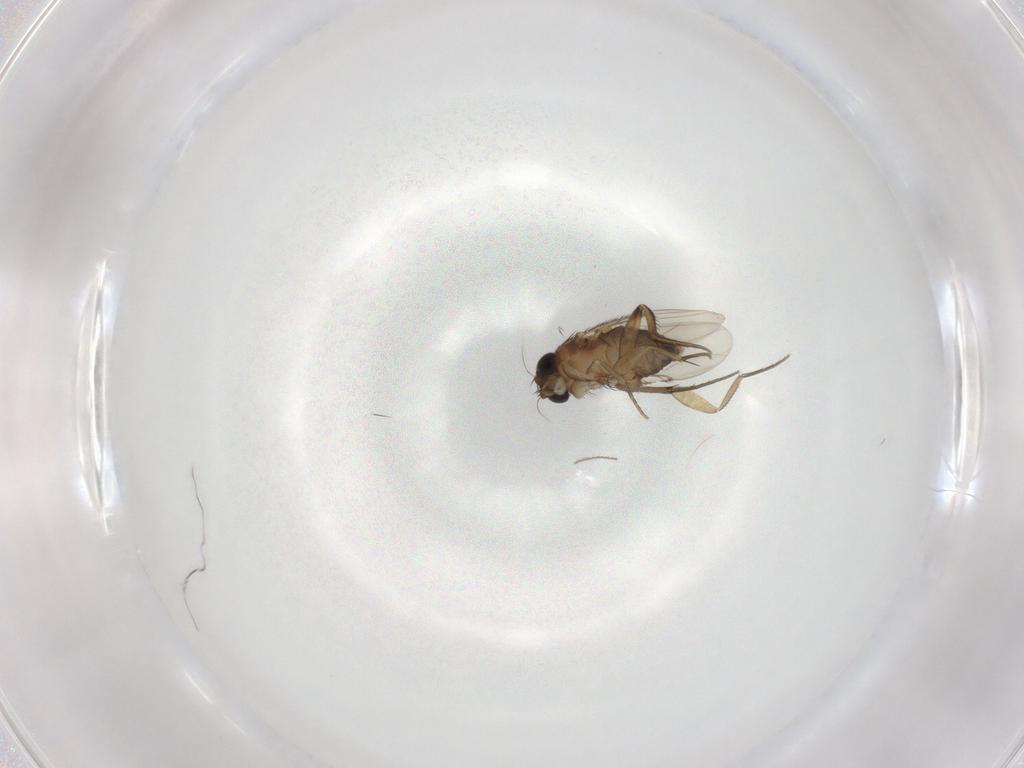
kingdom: Animalia
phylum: Arthropoda
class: Insecta
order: Diptera
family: Phoridae
